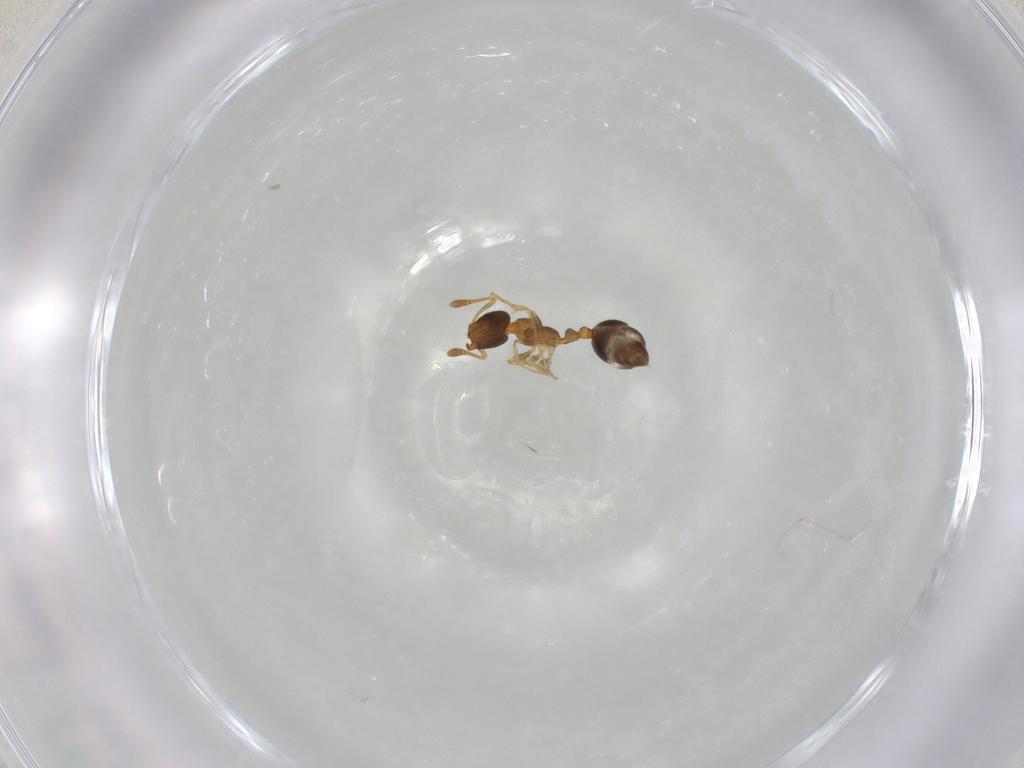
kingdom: Animalia
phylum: Arthropoda
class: Insecta
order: Hymenoptera
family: Formicidae
